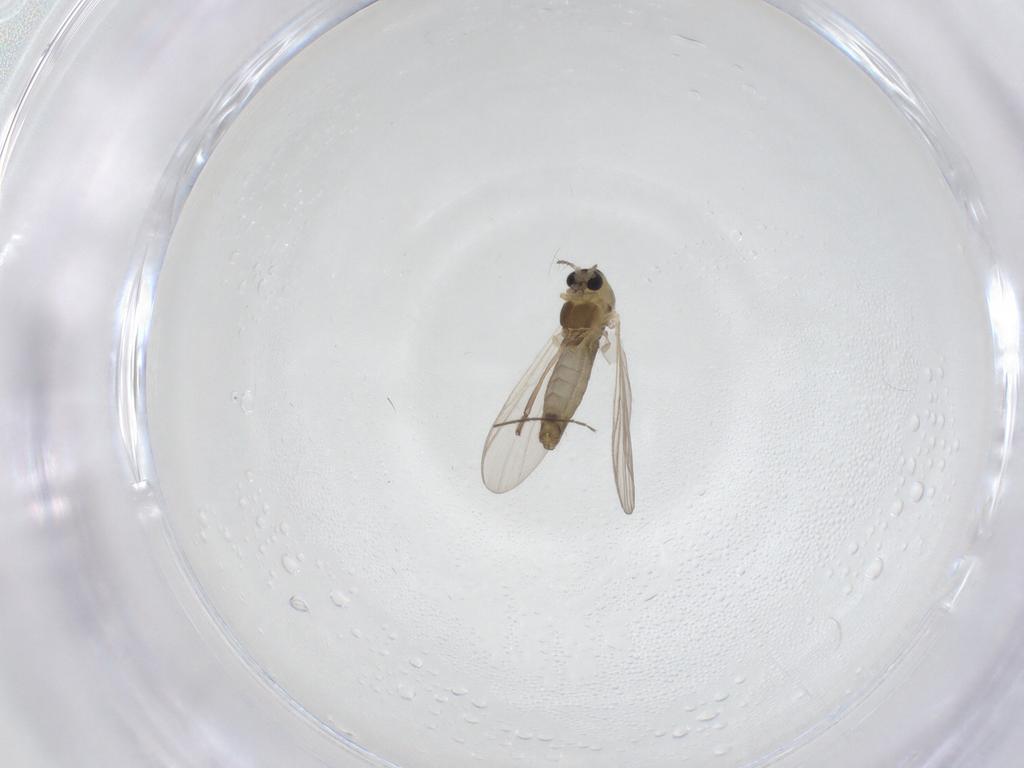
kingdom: Animalia
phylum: Arthropoda
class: Insecta
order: Diptera
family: Chironomidae
